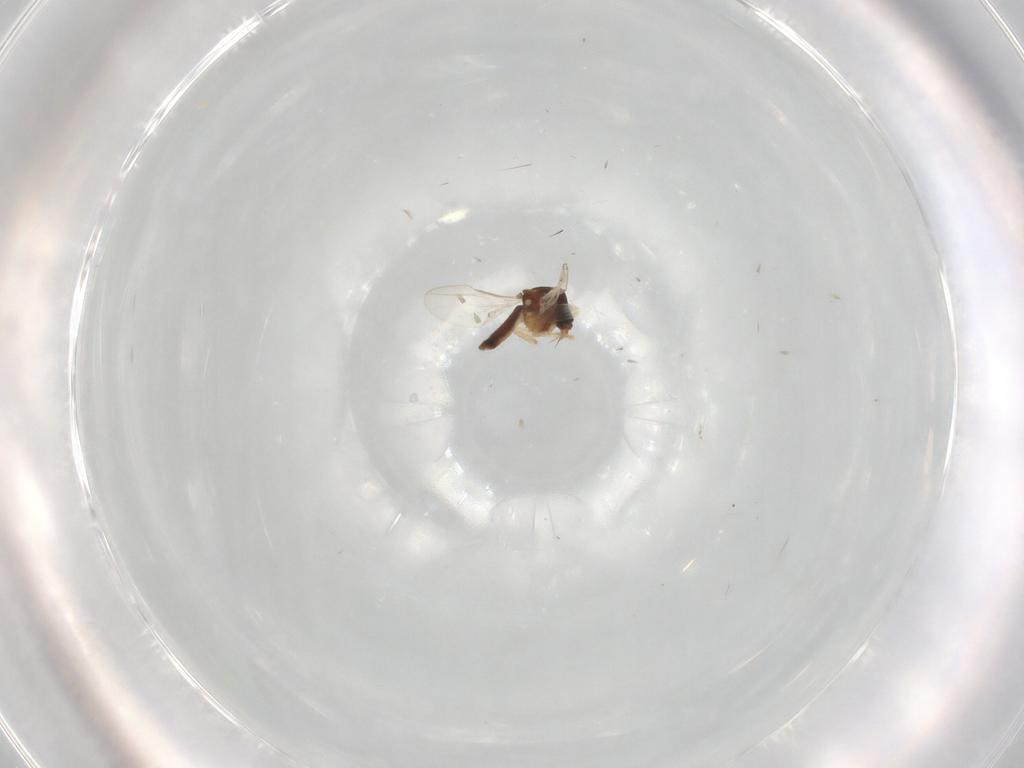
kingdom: Animalia
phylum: Arthropoda
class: Insecta
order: Diptera
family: Ceratopogonidae
